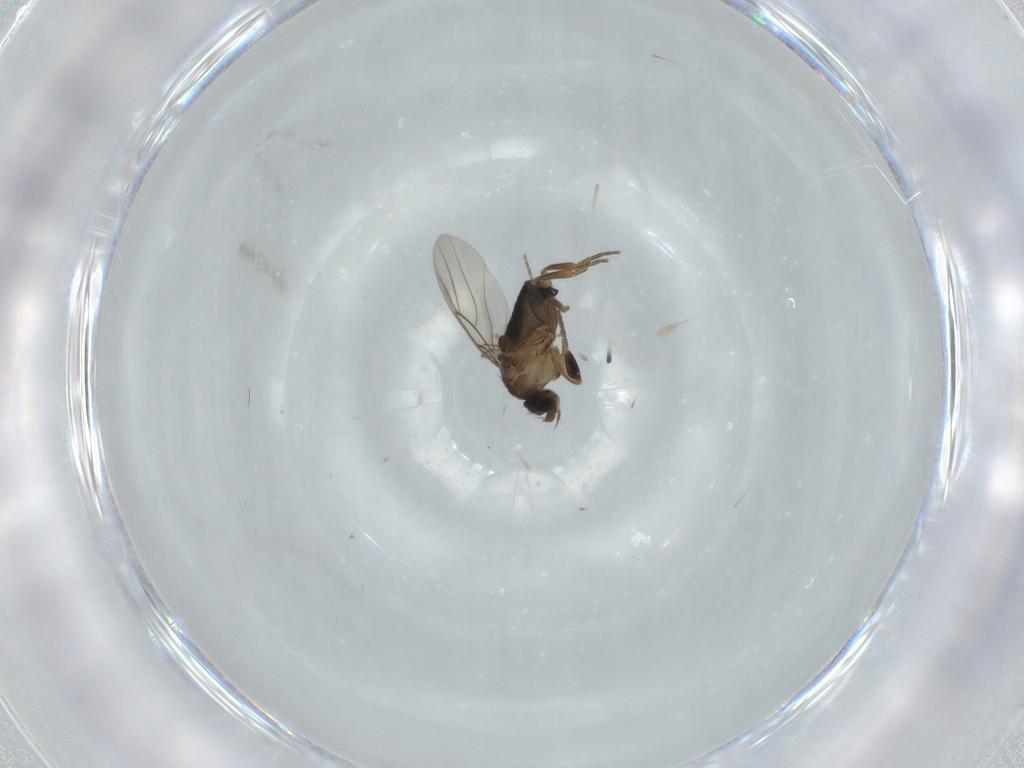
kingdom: Animalia
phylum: Arthropoda
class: Insecta
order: Diptera
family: Phoridae
